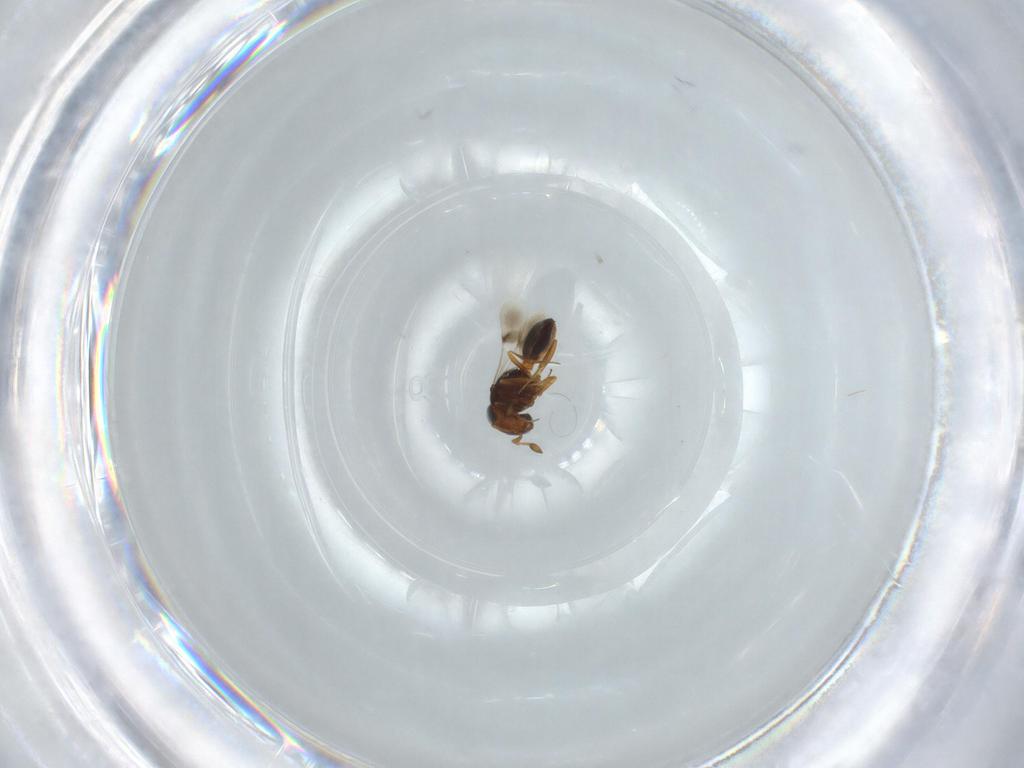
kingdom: Animalia
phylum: Arthropoda
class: Insecta
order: Hymenoptera
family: Scelionidae
